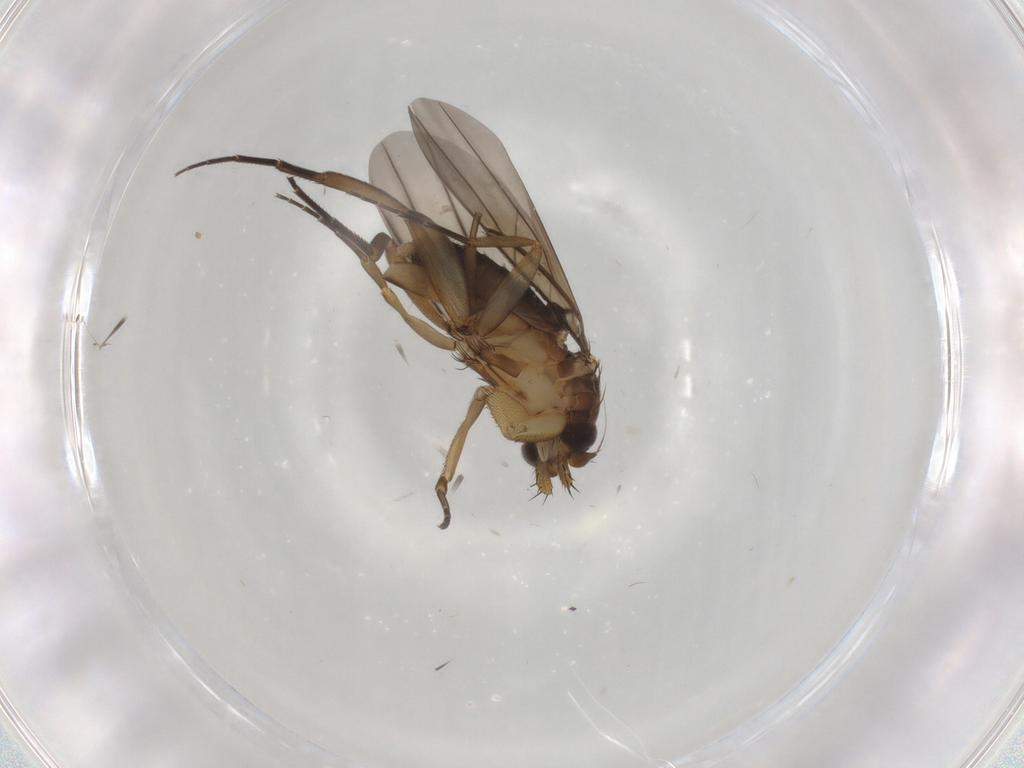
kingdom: Animalia
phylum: Arthropoda
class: Insecta
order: Diptera
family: Phoridae
